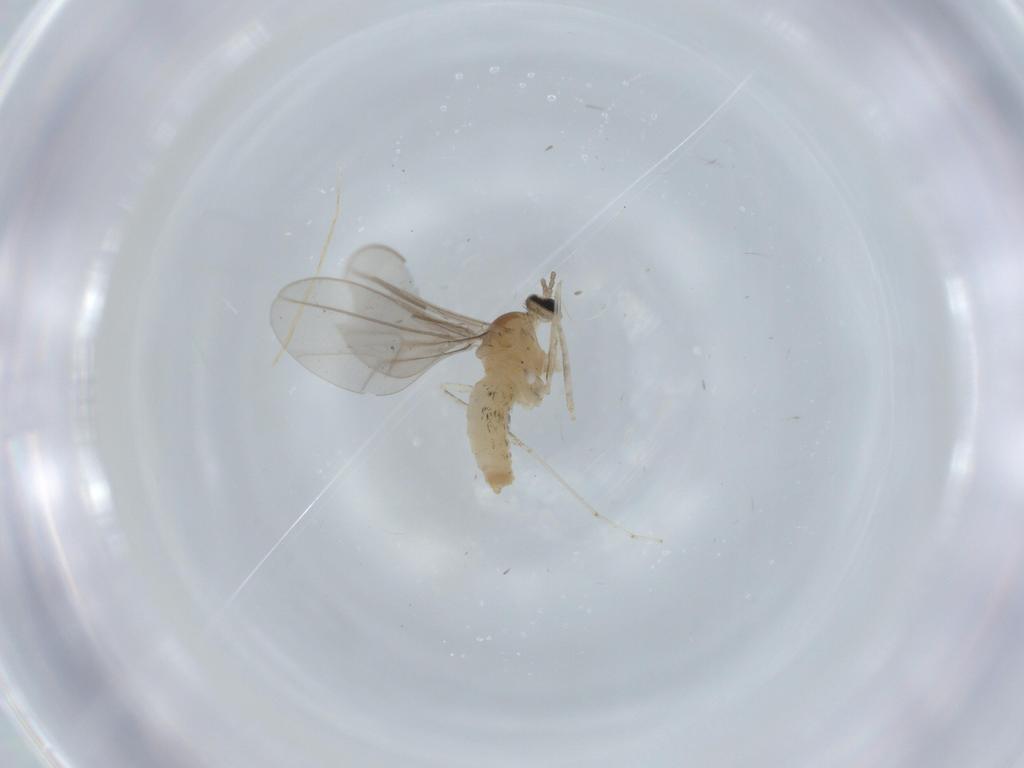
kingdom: Animalia
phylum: Arthropoda
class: Insecta
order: Diptera
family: Cecidomyiidae
